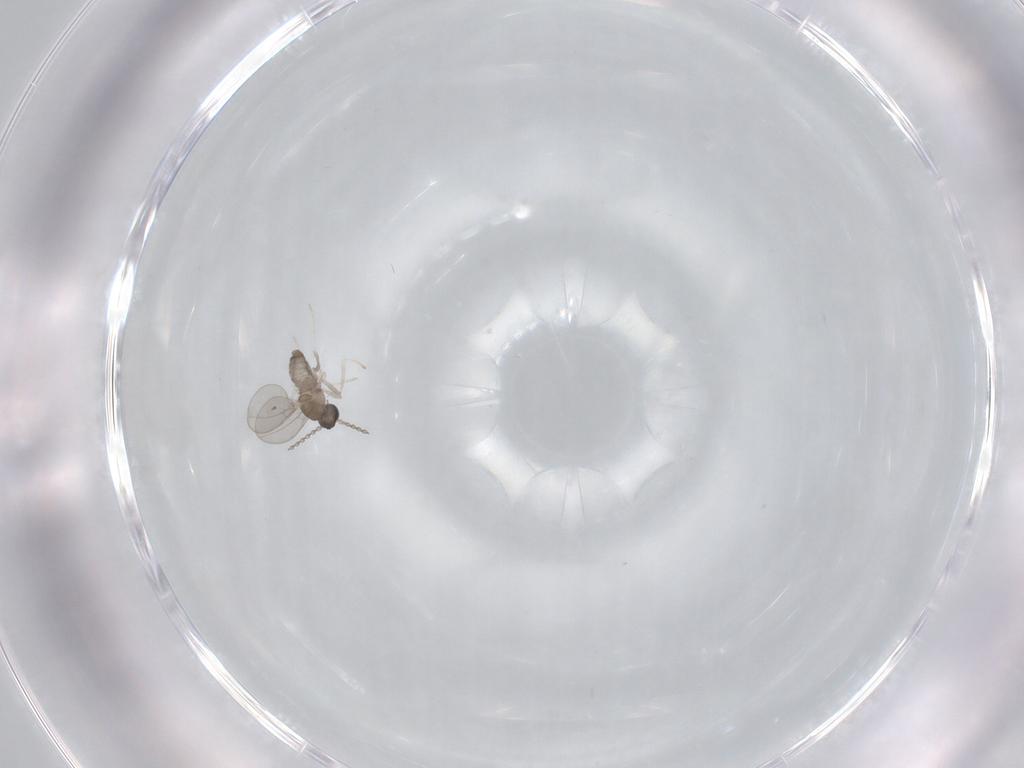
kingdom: Animalia
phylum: Arthropoda
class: Insecta
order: Diptera
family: Cecidomyiidae
